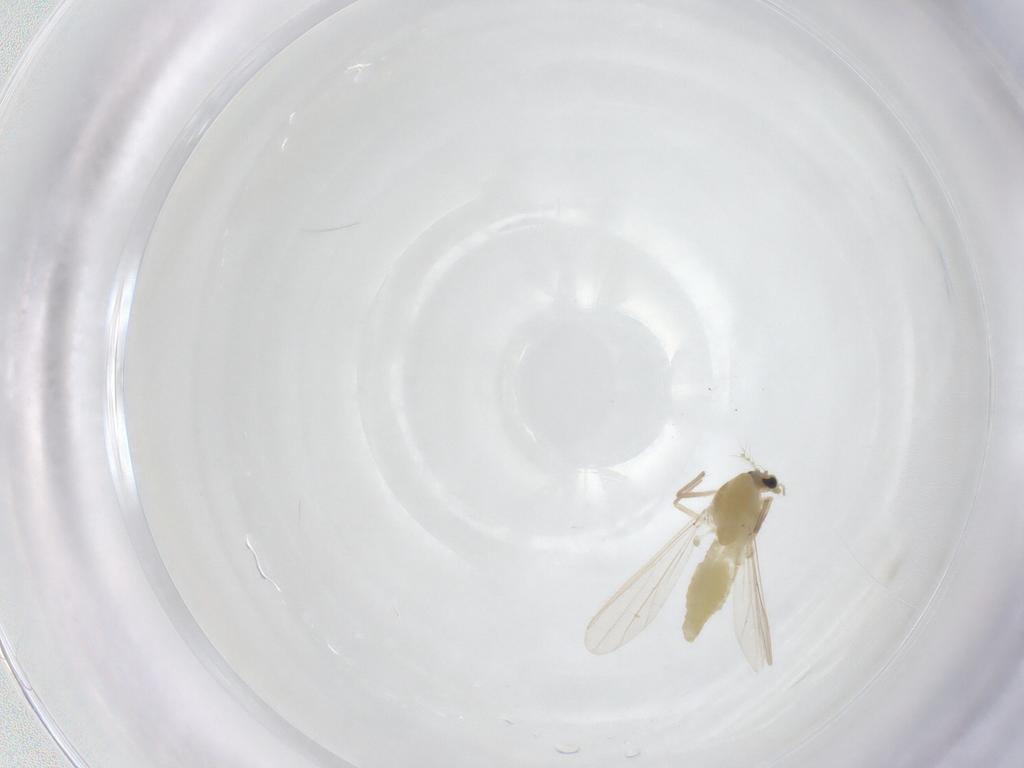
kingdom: Animalia
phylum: Arthropoda
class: Insecta
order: Diptera
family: Chironomidae
